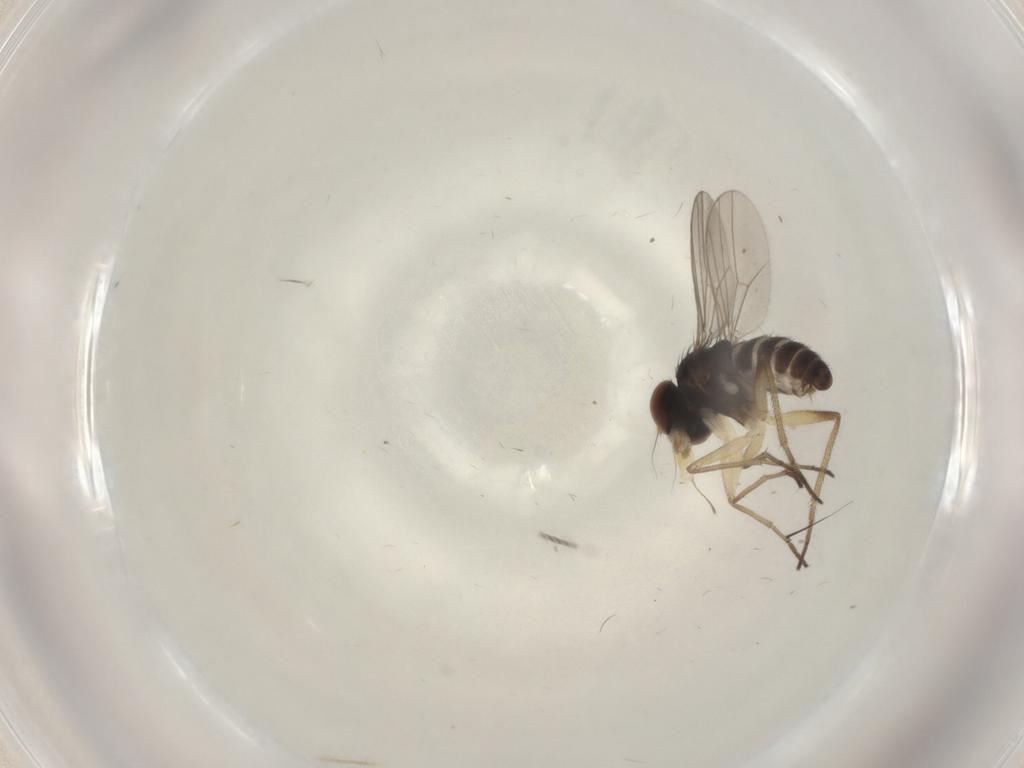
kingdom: Animalia
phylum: Arthropoda
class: Insecta
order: Diptera
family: Dolichopodidae
